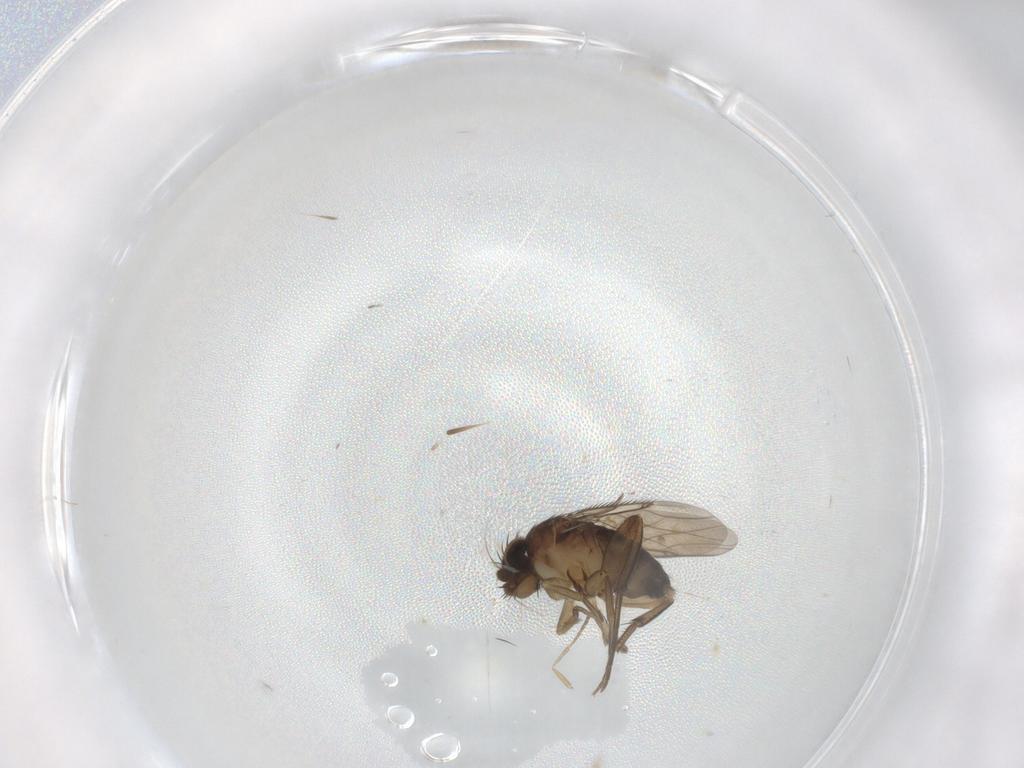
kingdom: Animalia
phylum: Arthropoda
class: Insecta
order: Diptera
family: Phoridae
